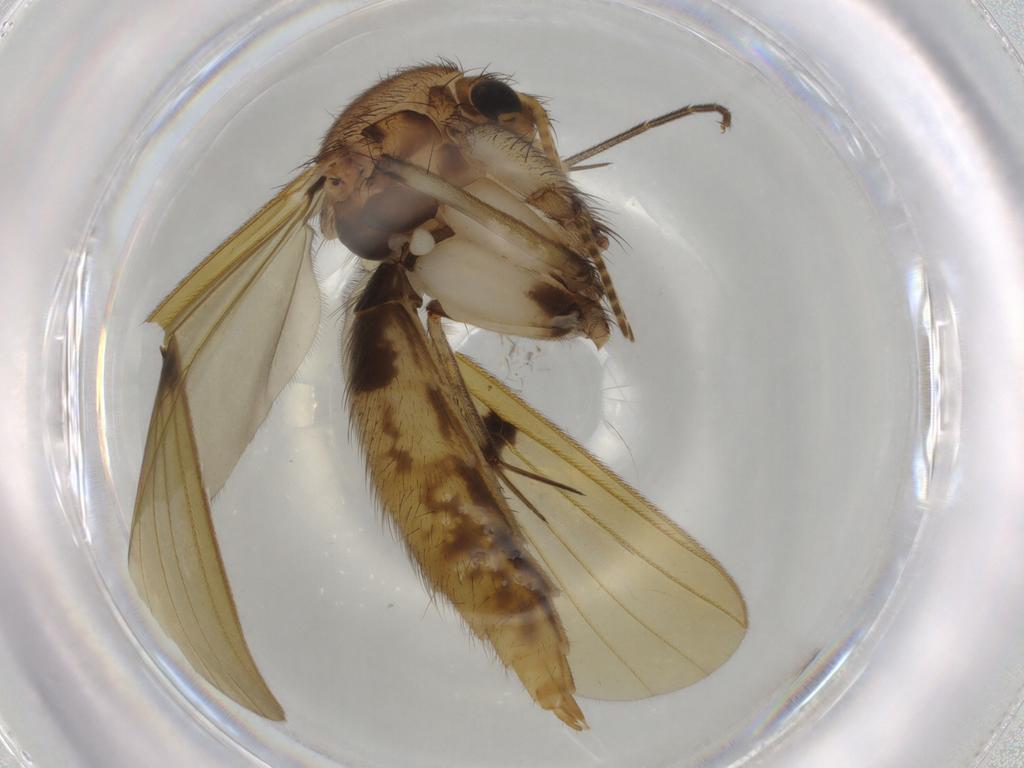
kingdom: Animalia
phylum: Arthropoda
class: Insecta
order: Diptera
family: Mycetophilidae
